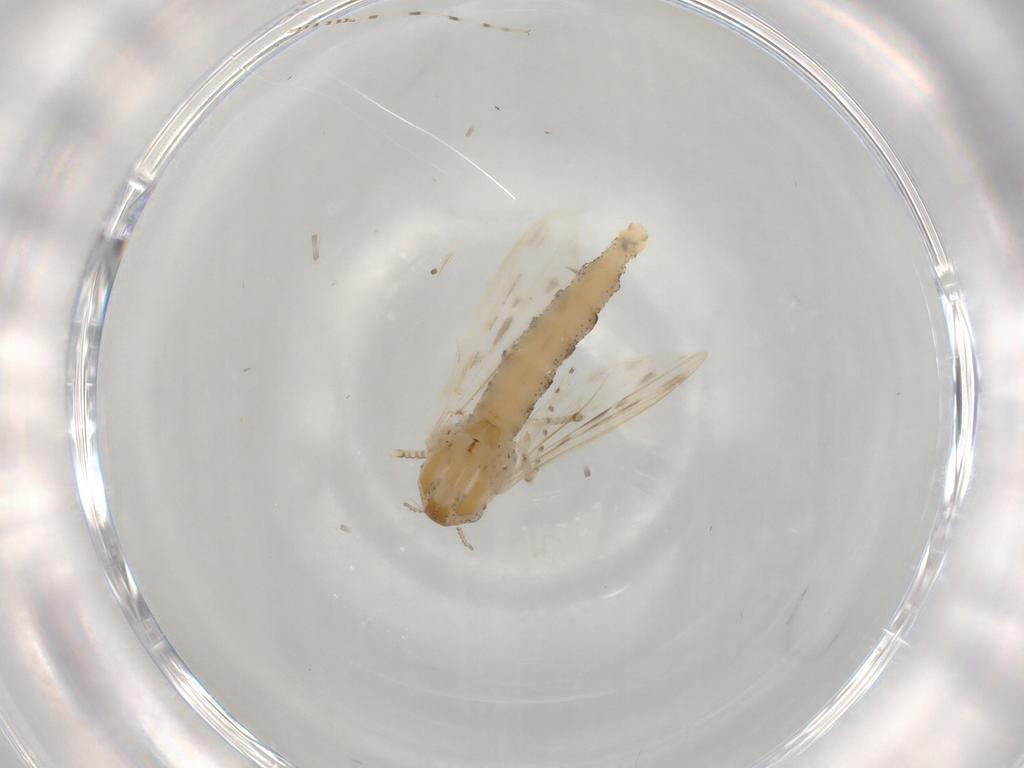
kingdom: Animalia
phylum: Arthropoda
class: Insecta
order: Diptera
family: Chaoboridae
